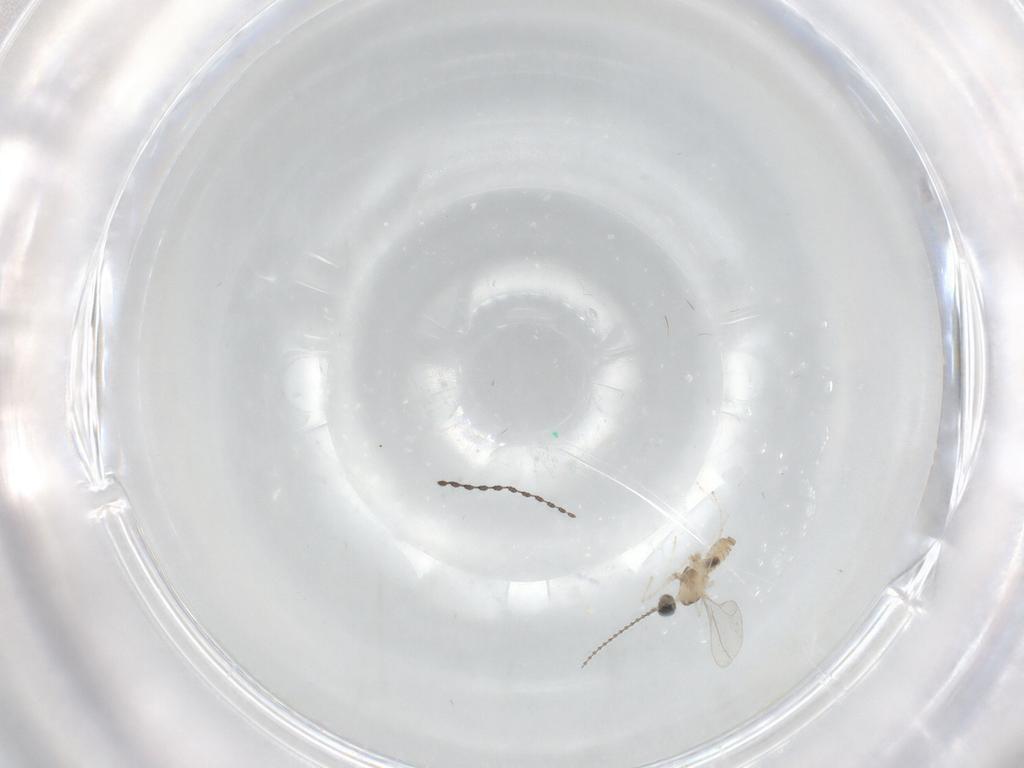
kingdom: Animalia
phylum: Arthropoda
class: Insecta
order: Diptera
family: Cecidomyiidae
